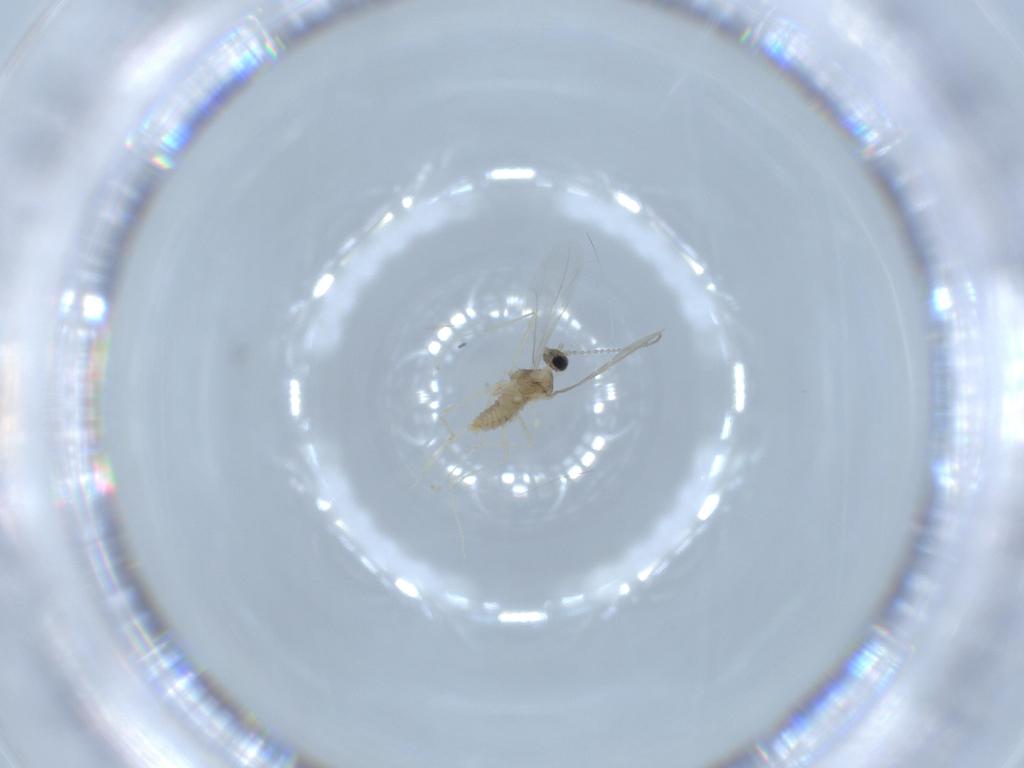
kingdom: Animalia
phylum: Arthropoda
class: Insecta
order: Diptera
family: Cecidomyiidae
